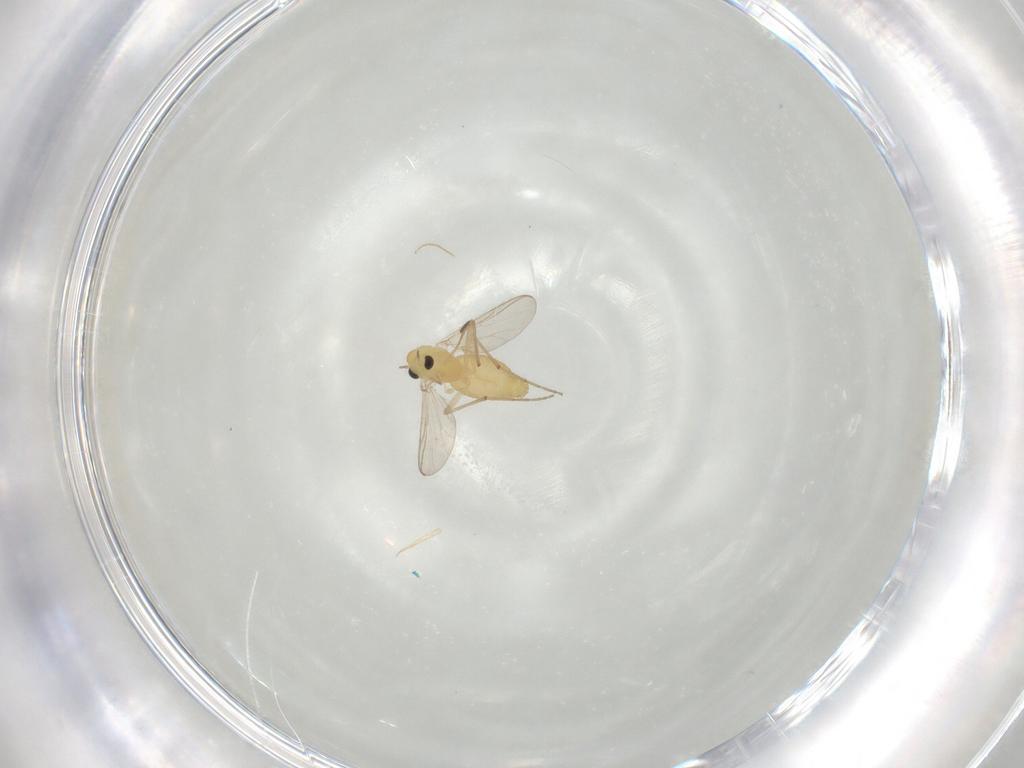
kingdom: Animalia
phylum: Arthropoda
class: Insecta
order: Diptera
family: Chironomidae
